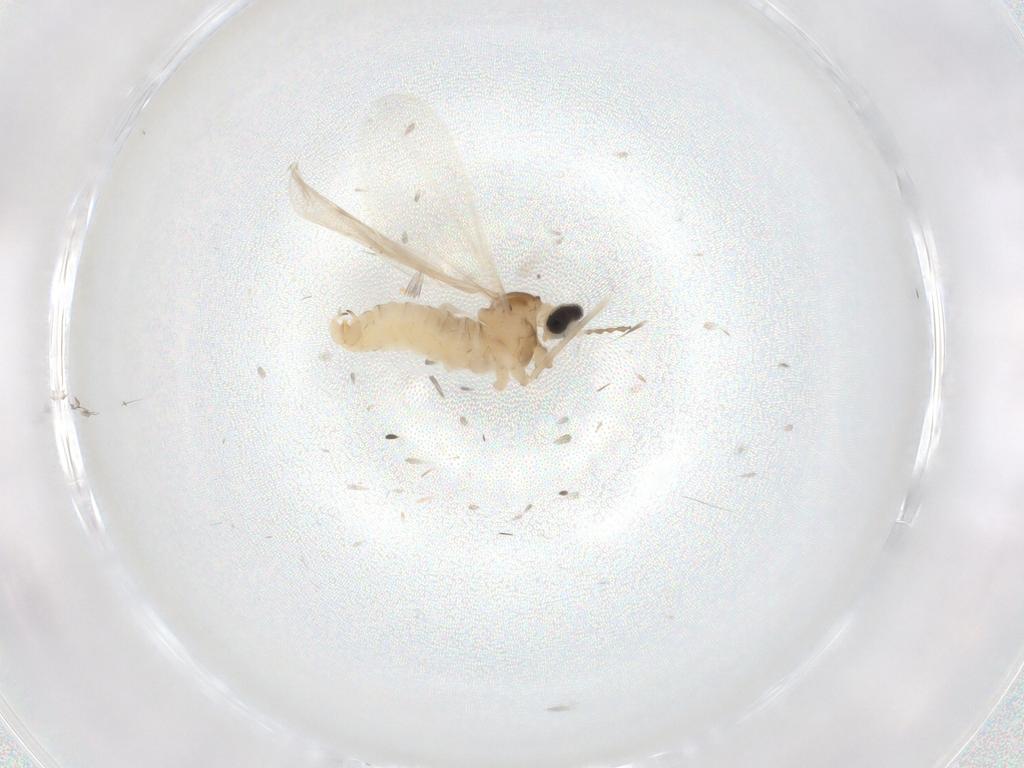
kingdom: Animalia
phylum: Arthropoda
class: Insecta
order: Diptera
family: Cecidomyiidae
